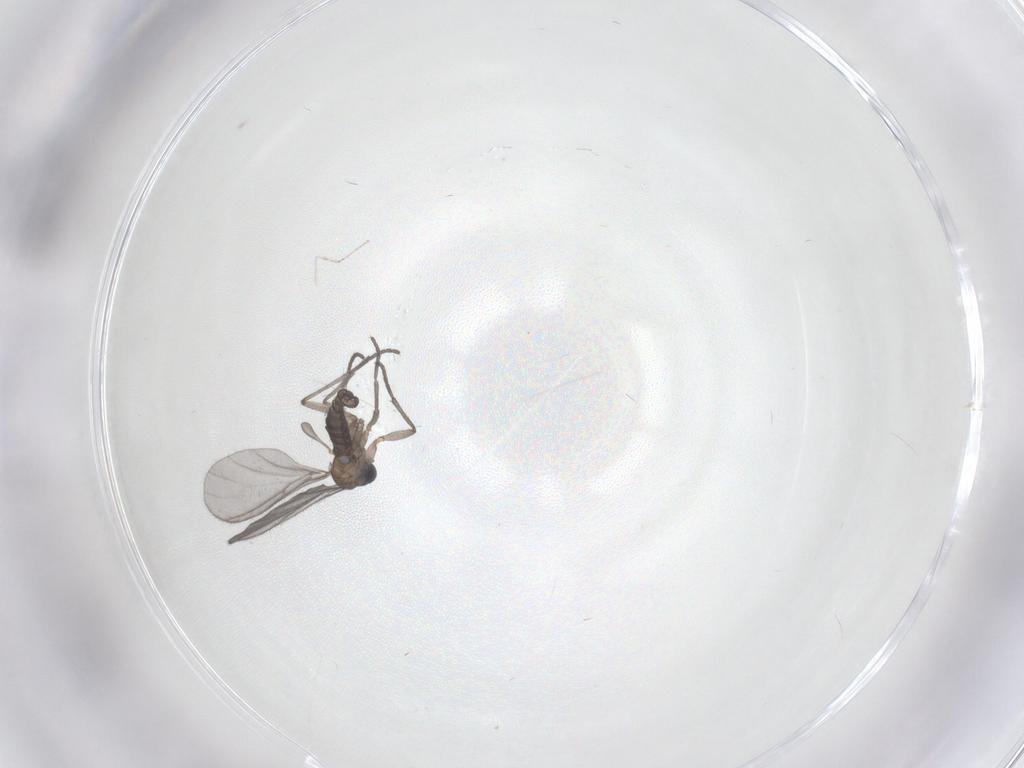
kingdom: Animalia
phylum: Arthropoda
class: Insecta
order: Diptera
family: Sciaridae
